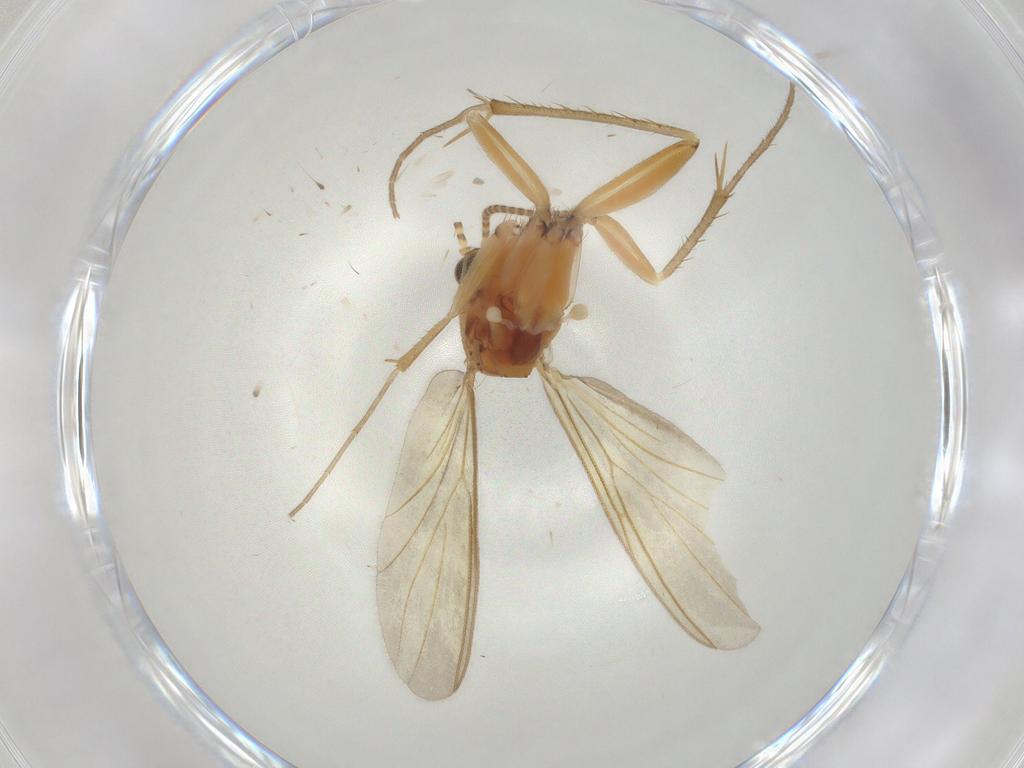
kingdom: Animalia
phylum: Arthropoda
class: Insecta
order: Diptera
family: Mycetophilidae
